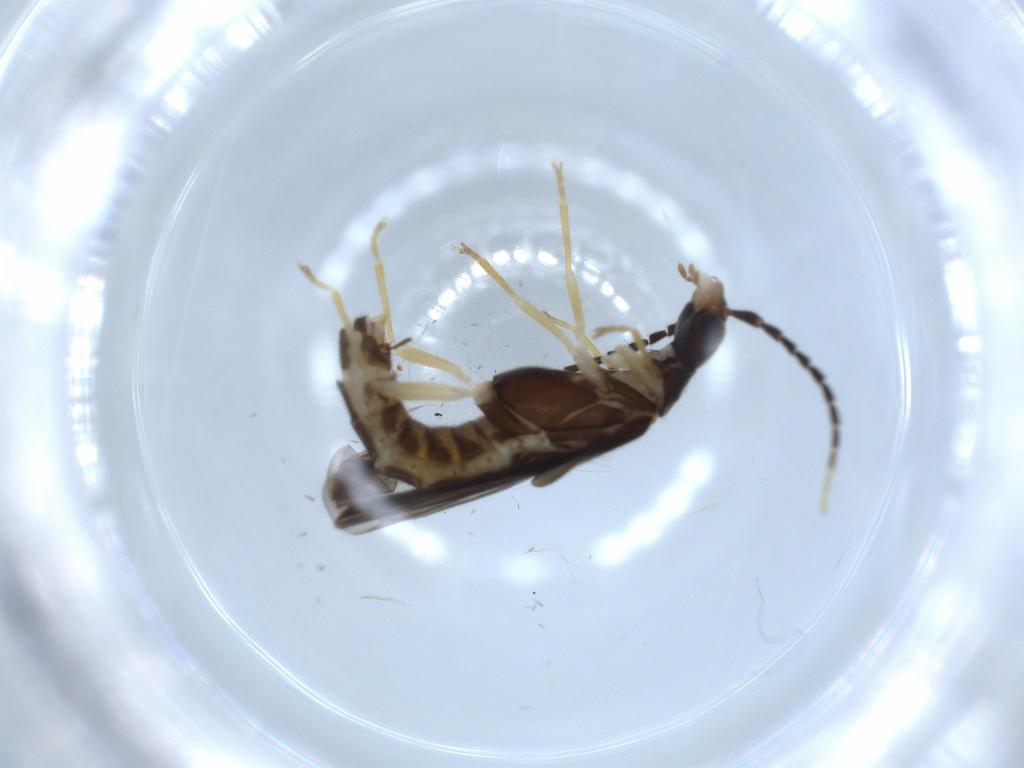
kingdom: Animalia
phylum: Arthropoda
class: Insecta
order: Coleoptera
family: Cantharidae
